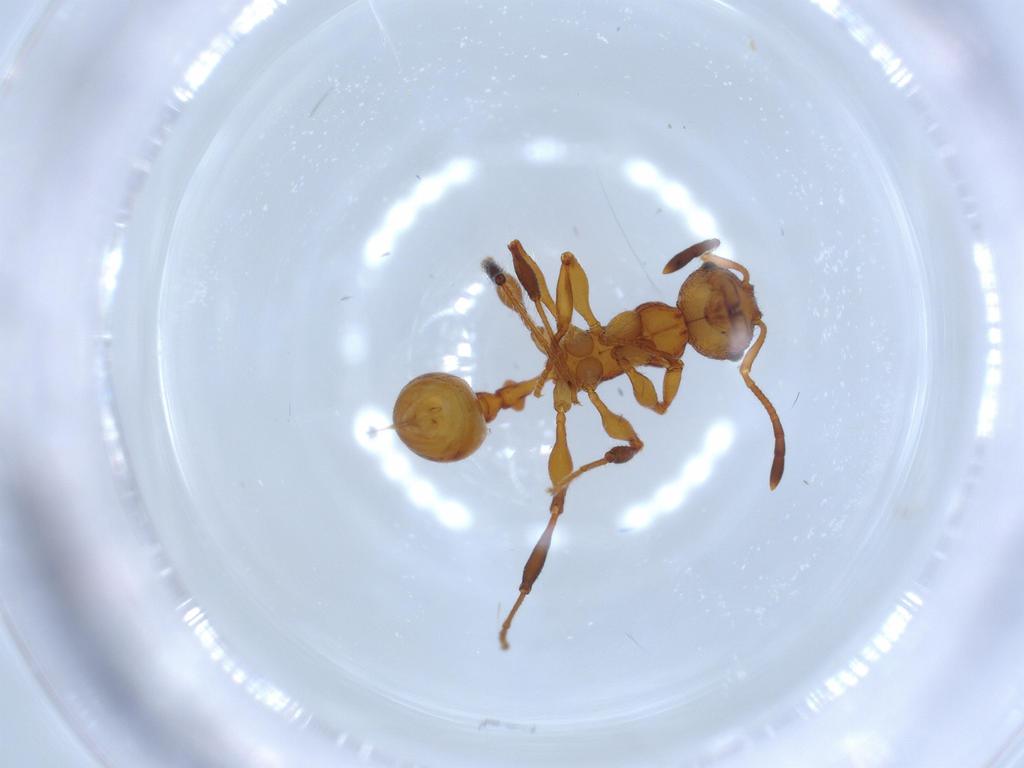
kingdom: Animalia
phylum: Arthropoda
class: Insecta
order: Hymenoptera
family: Formicidae
